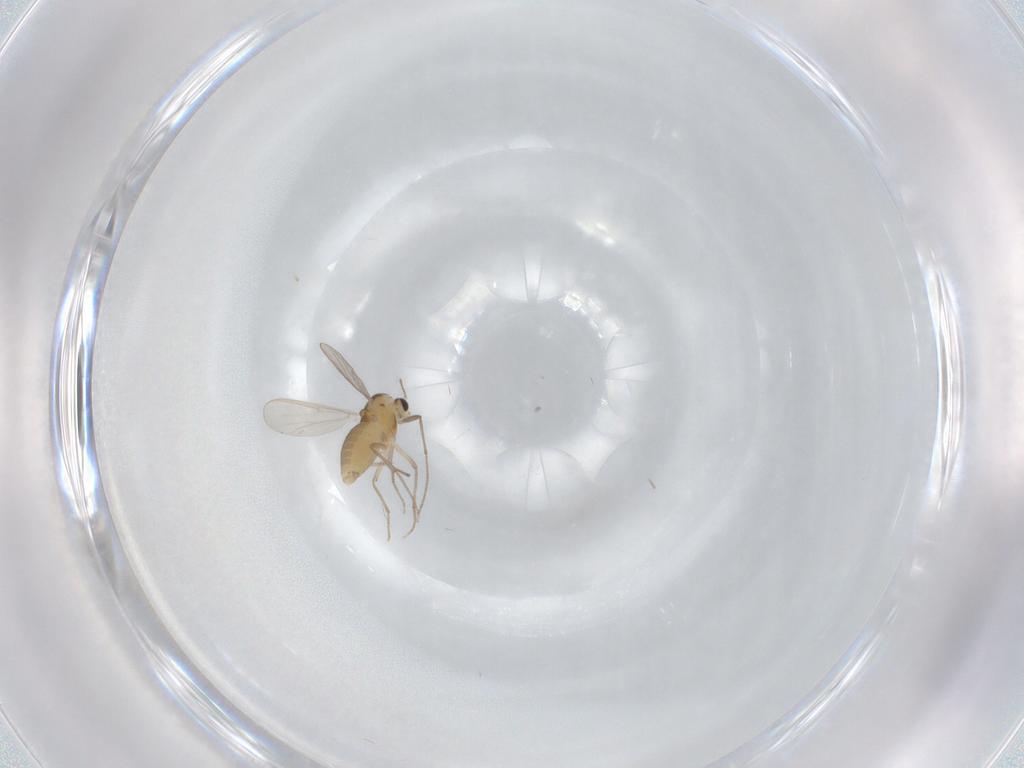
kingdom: Animalia
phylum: Arthropoda
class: Insecta
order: Diptera
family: Chironomidae
